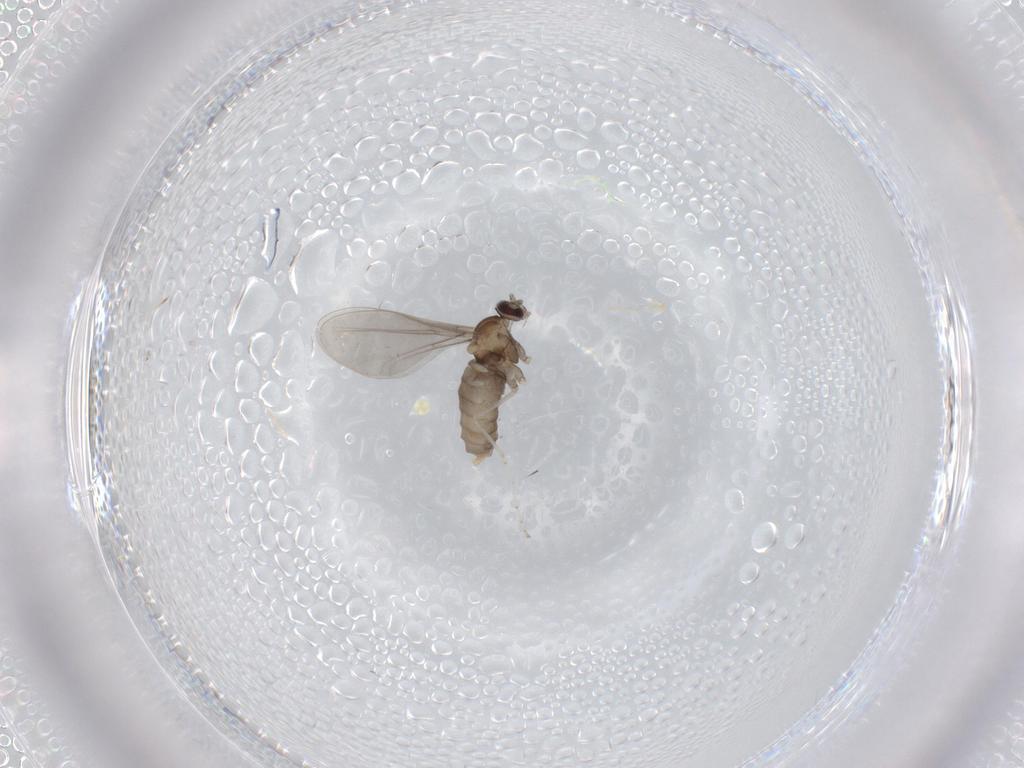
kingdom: Animalia
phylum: Arthropoda
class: Insecta
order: Diptera
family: Cecidomyiidae
